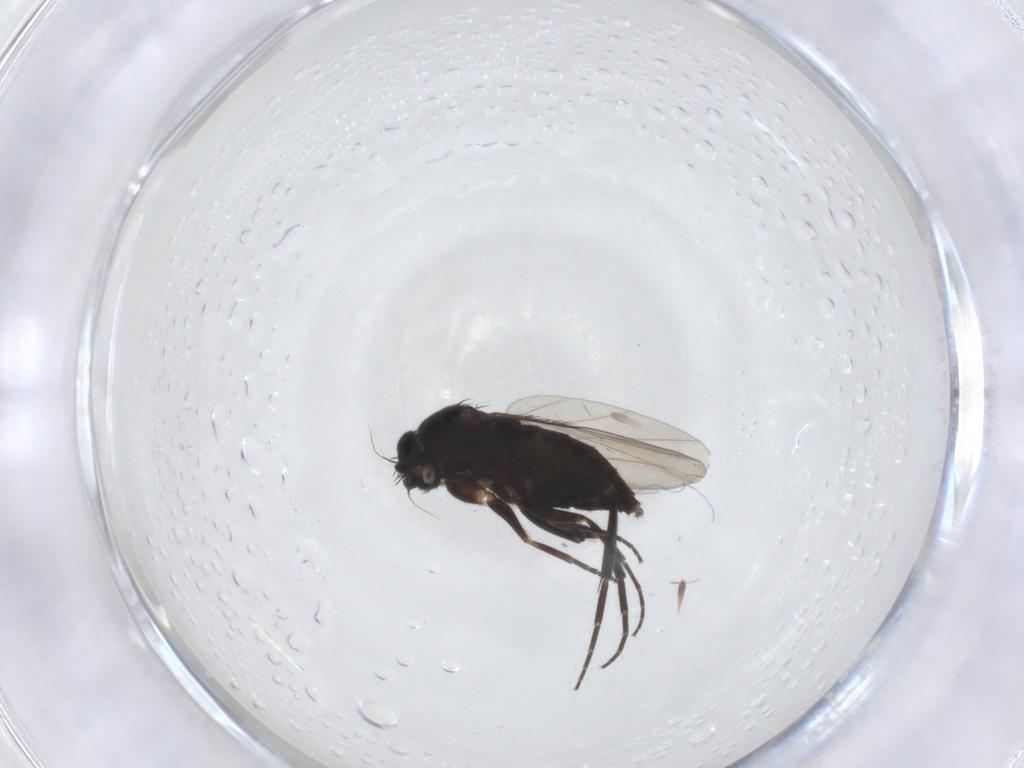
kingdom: Animalia
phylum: Arthropoda
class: Insecta
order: Diptera
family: Phoridae
